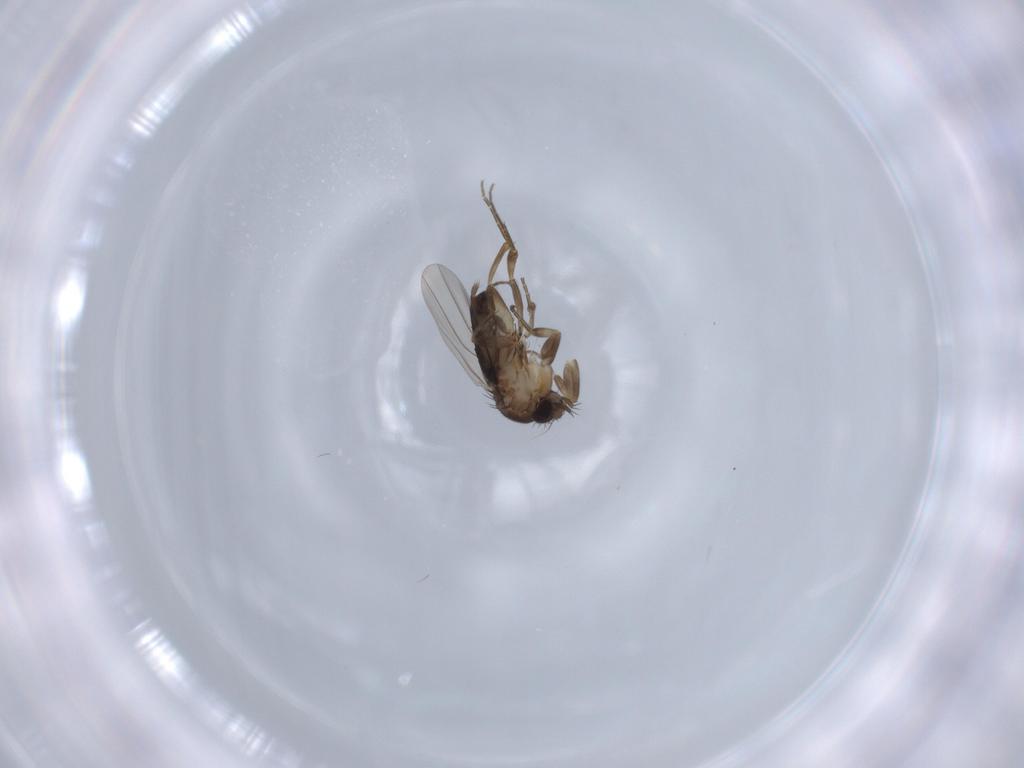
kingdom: Animalia
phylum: Arthropoda
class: Insecta
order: Diptera
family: Phoridae
